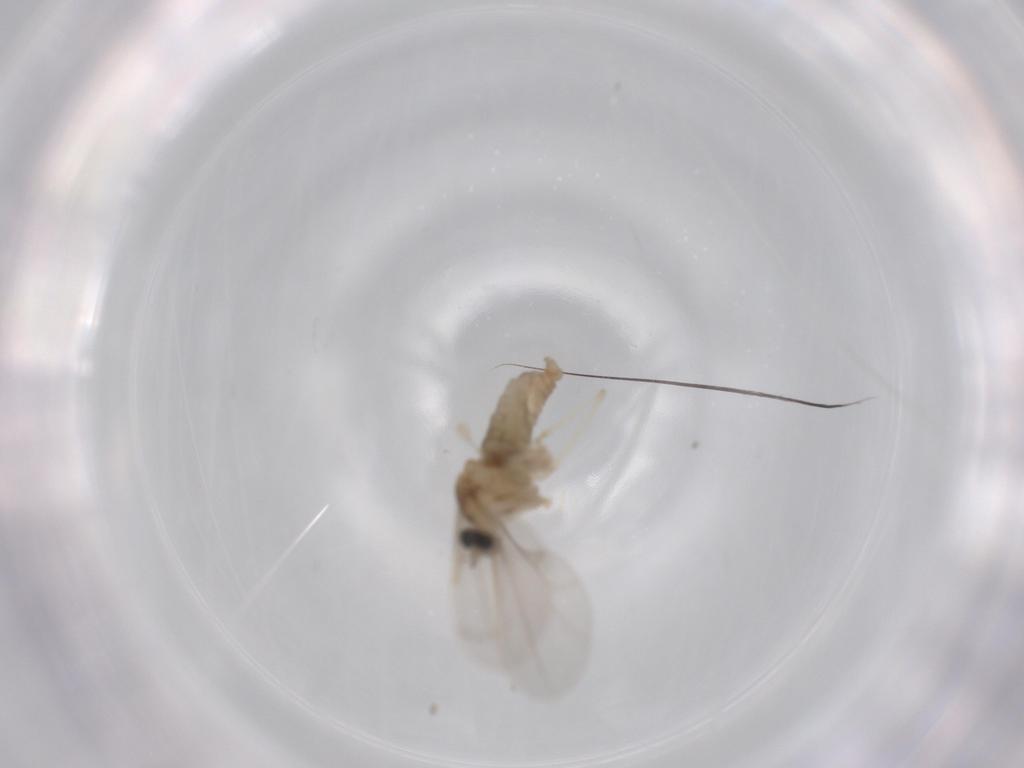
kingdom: Animalia
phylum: Arthropoda
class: Insecta
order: Diptera
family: Cecidomyiidae
